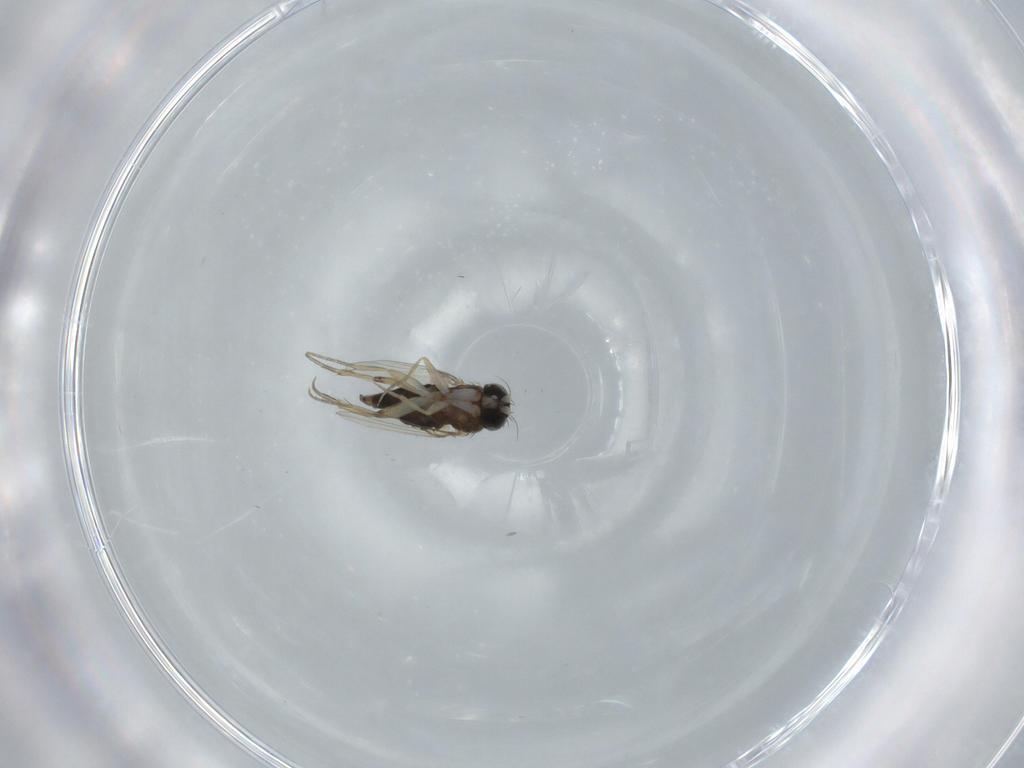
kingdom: Animalia
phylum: Arthropoda
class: Insecta
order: Diptera
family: Phoridae
